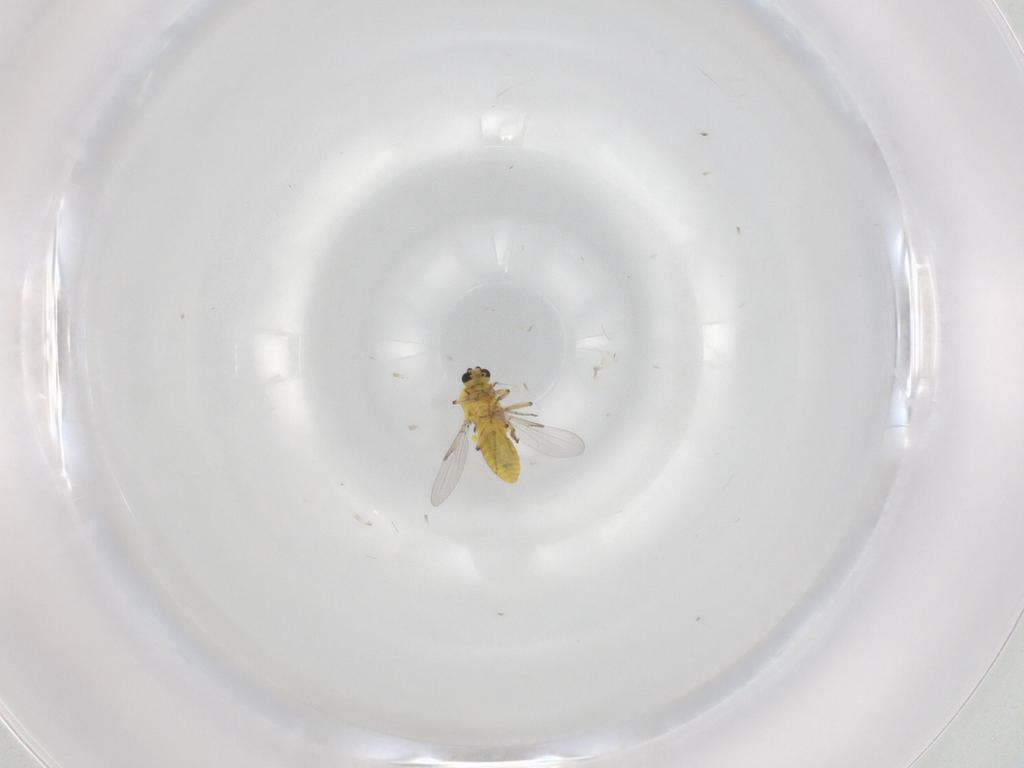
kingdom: Animalia
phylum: Arthropoda
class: Insecta
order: Diptera
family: Ceratopogonidae
